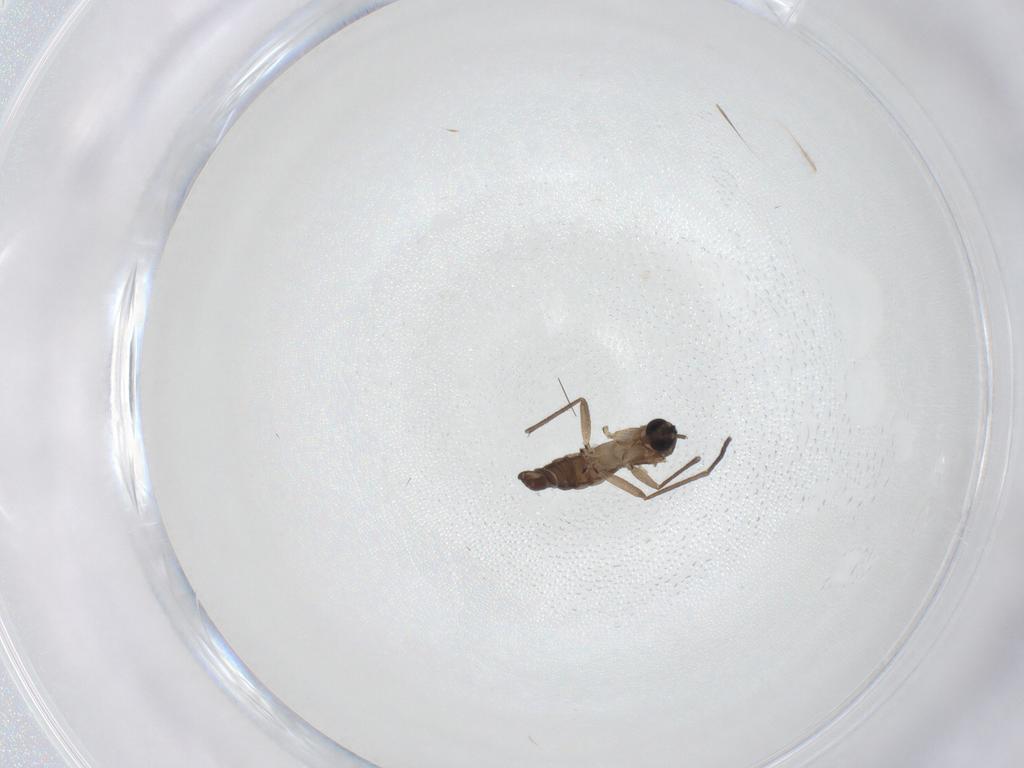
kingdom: Animalia
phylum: Arthropoda
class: Insecta
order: Diptera
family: Sciaridae
